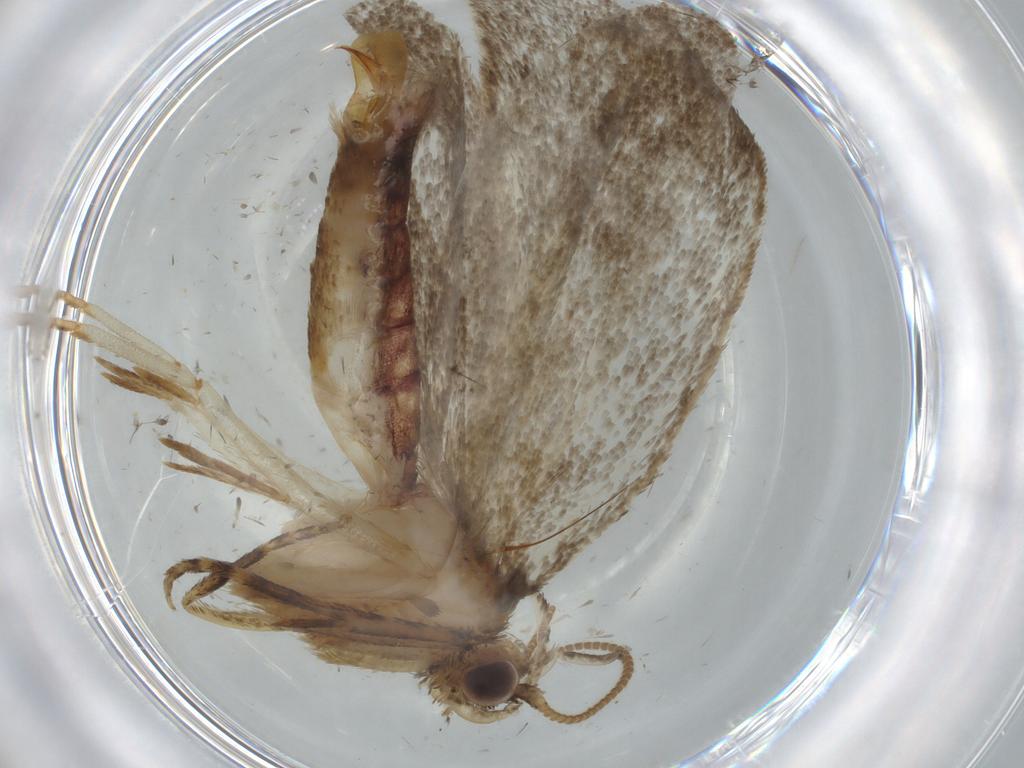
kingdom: Animalia
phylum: Arthropoda
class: Insecta
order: Lepidoptera
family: Tineidae
